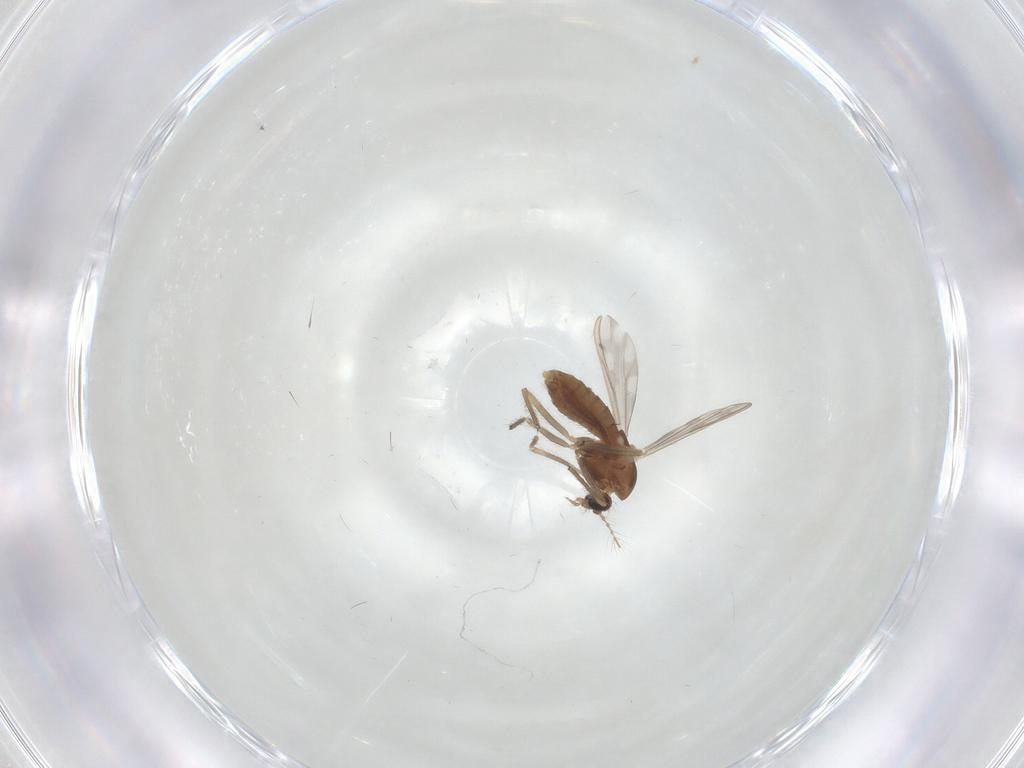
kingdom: Animalia
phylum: Arthropoda
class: Insecta
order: Diptera
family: Chironomidae
